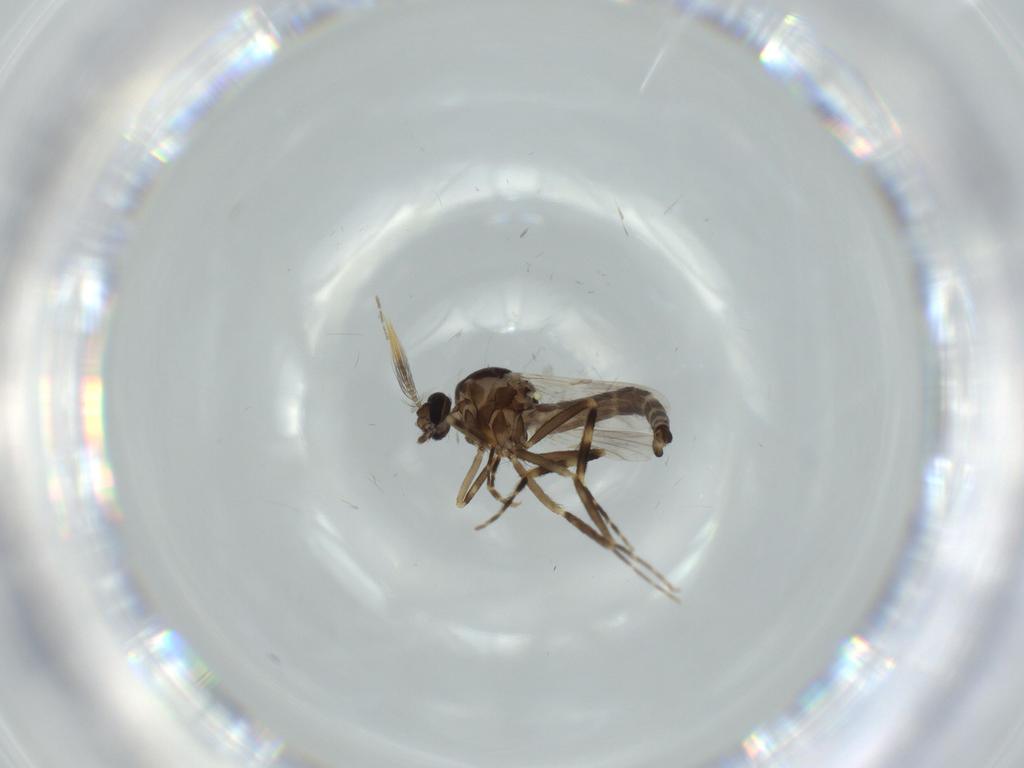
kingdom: Animalia
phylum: Arthropoda
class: Insecta
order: Diptera
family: Ceratopogonidae
